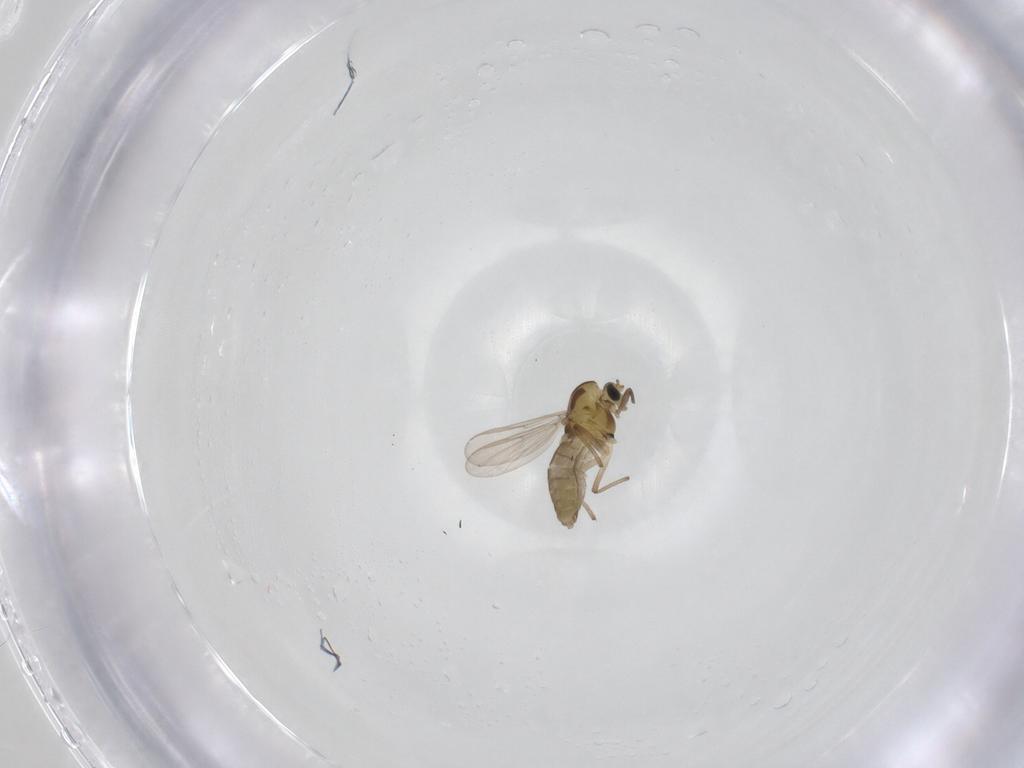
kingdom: Animalia
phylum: Arthropoda
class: Insecta
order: Diptera
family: Chironomidae
